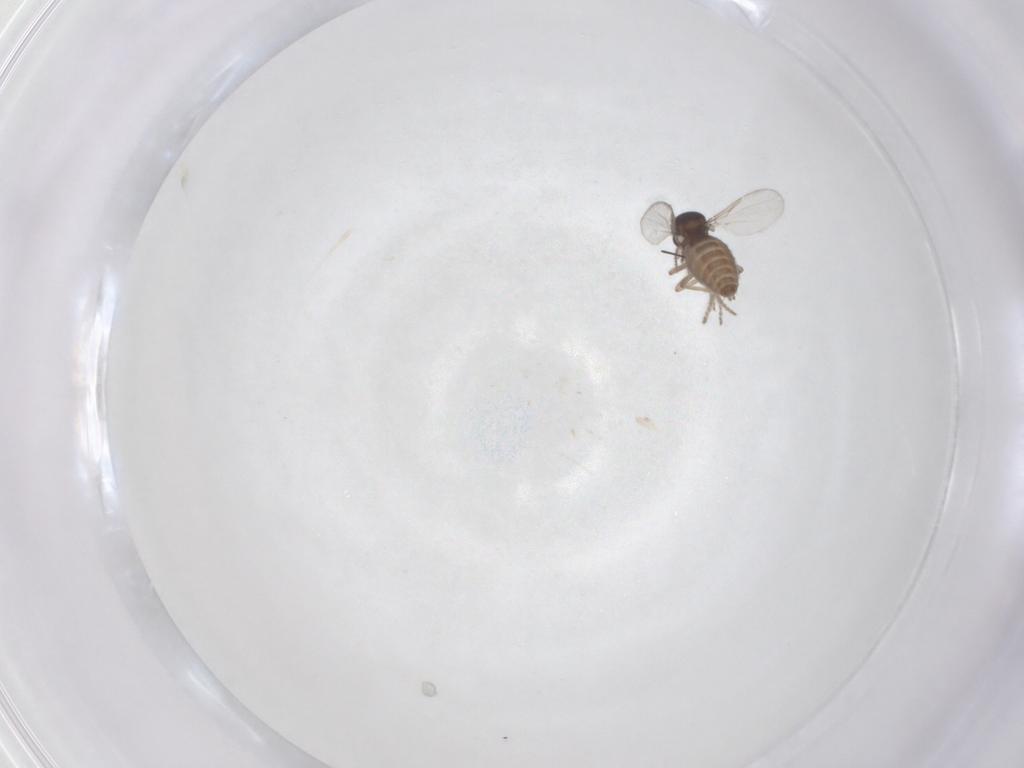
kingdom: Animalia
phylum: Arthropoda
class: Insecta
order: Diptera
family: Ceratopogonidae
